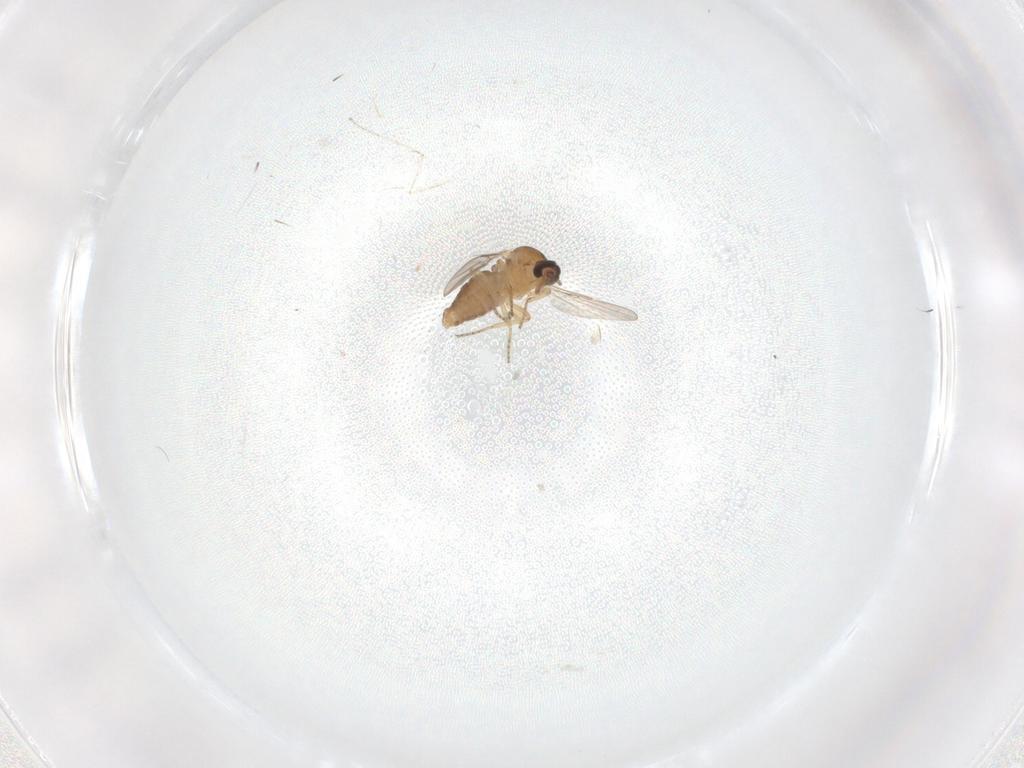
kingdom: Animalia
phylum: Arthropoda
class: Insecta
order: Diptera
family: Ceratopogonidae
